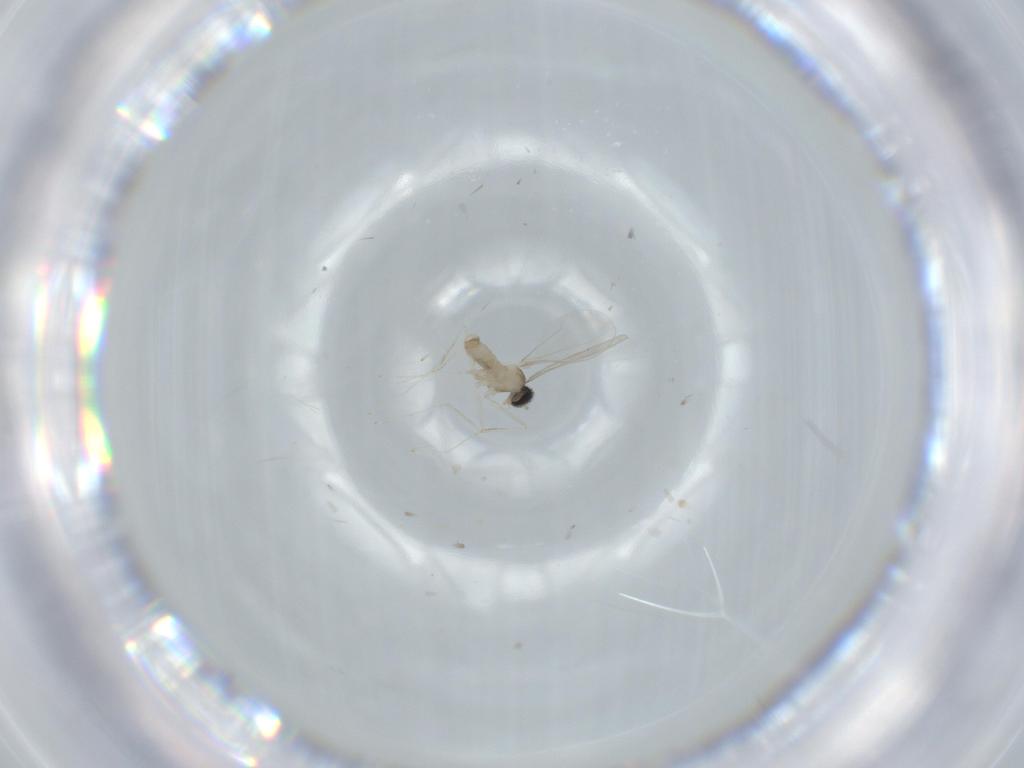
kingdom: Animalia
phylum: Arthropoda
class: Insecta
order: Diptera
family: Cecidomyiidae
